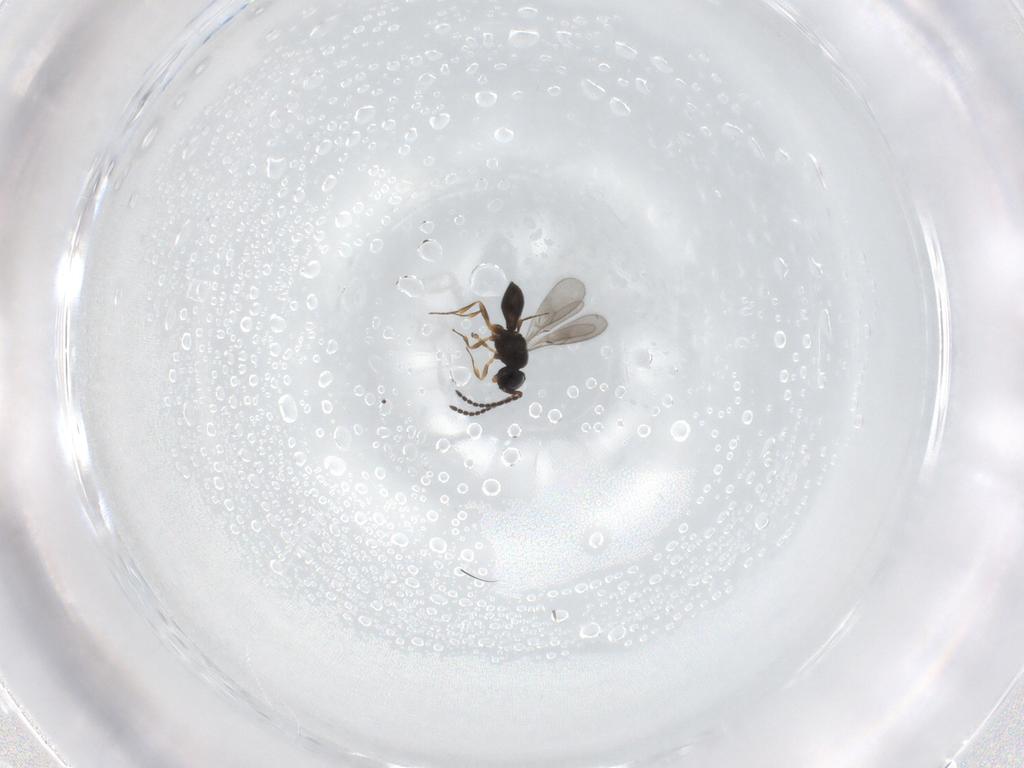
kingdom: Animalia
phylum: Arthropoda
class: Insecta
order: Hymenoptera
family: Scelionidae
